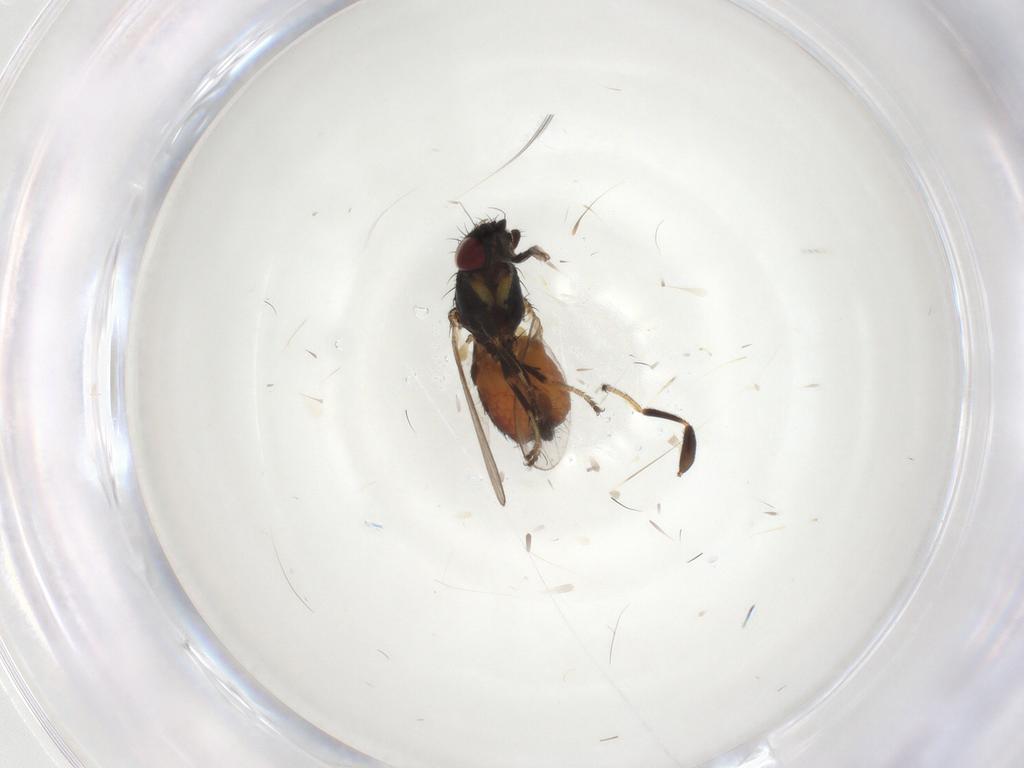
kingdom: Animalia
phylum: Arthropoda
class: Insecta
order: Diptera
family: Milichiidae
